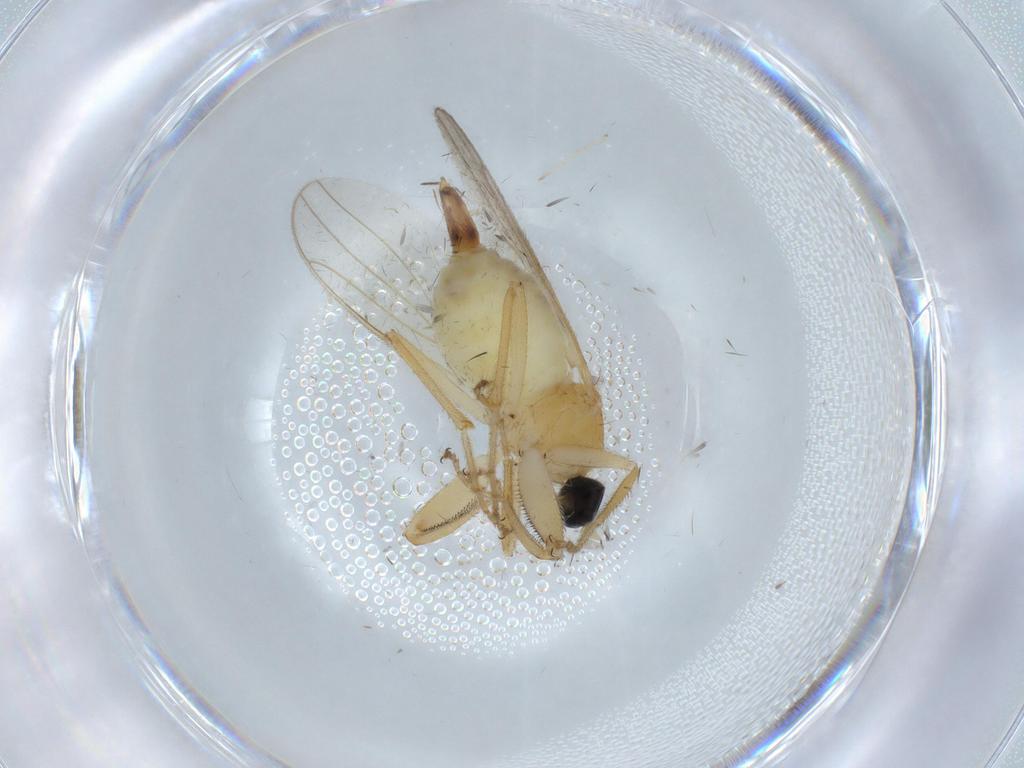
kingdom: Animalia
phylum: Arthropoda
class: Insecta
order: Diptera
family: Hybotidae
